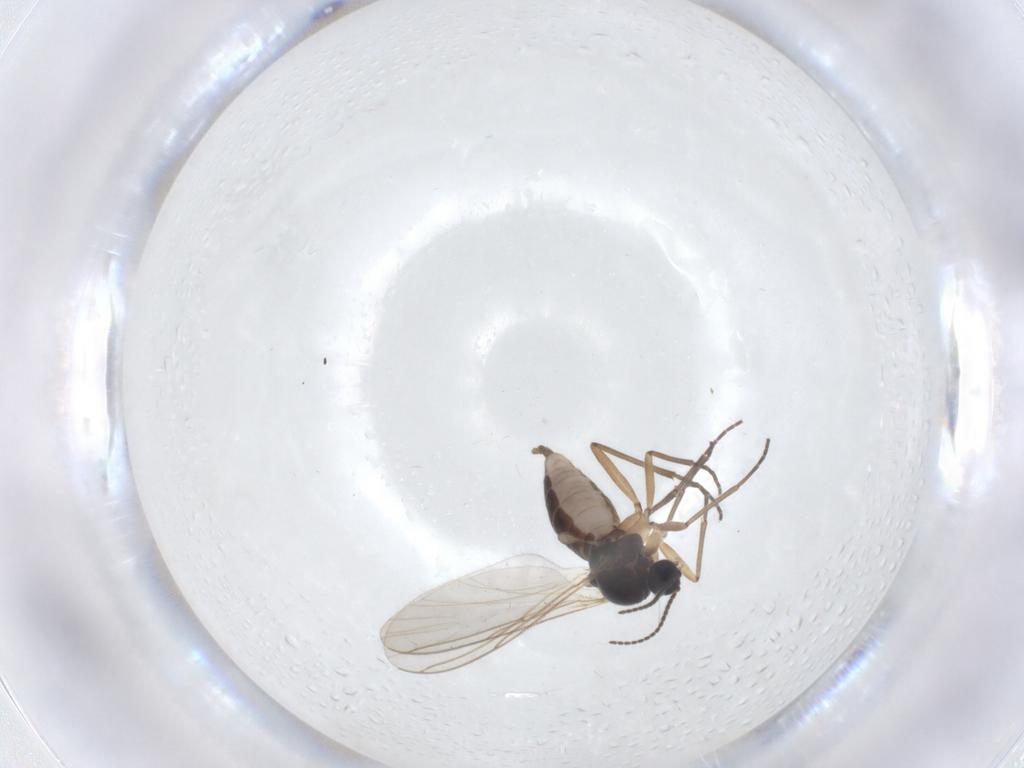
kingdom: Animalia
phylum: Arthropoda
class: Insecta
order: Diptera
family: Sciaridae
